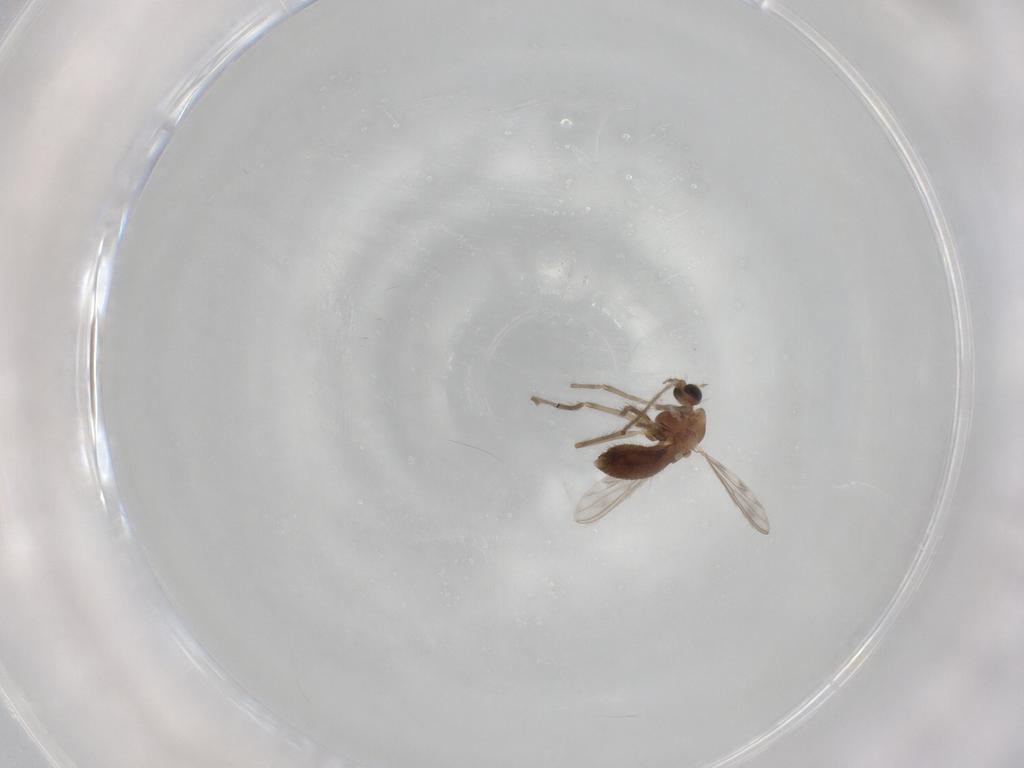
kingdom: Animalia
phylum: Arthropoda
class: Insecta
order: Diptera
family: Chironomidae
